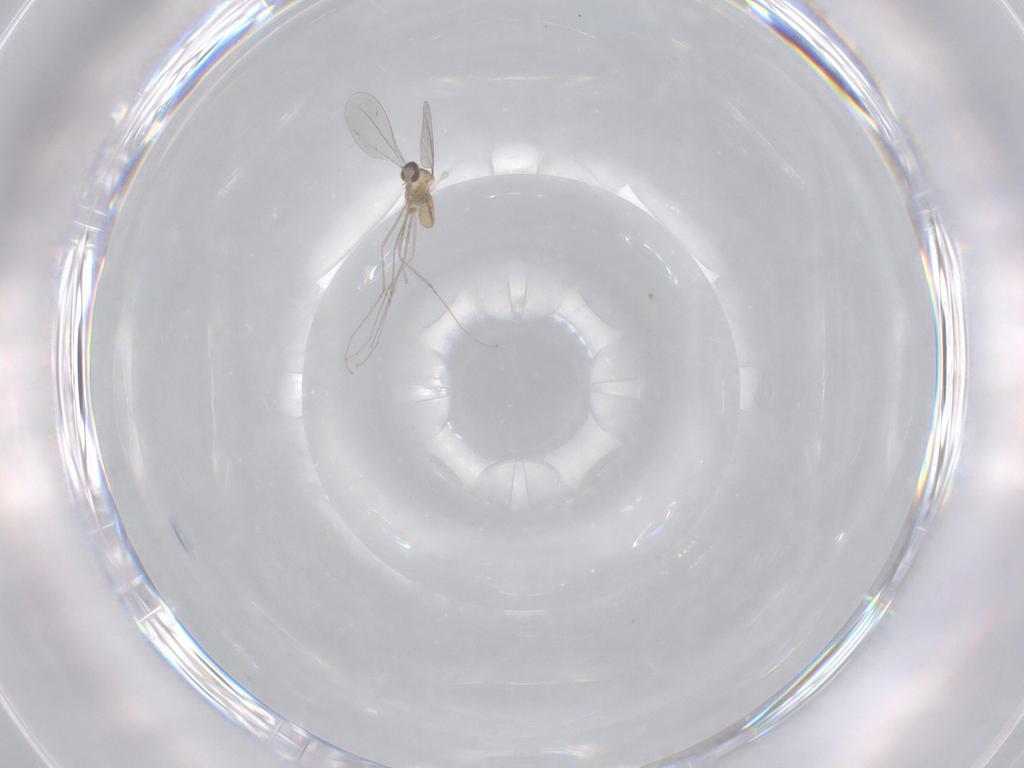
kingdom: Animalia
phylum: Arthropoda
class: Insecta
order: Diptera
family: Cecidomyiidae
